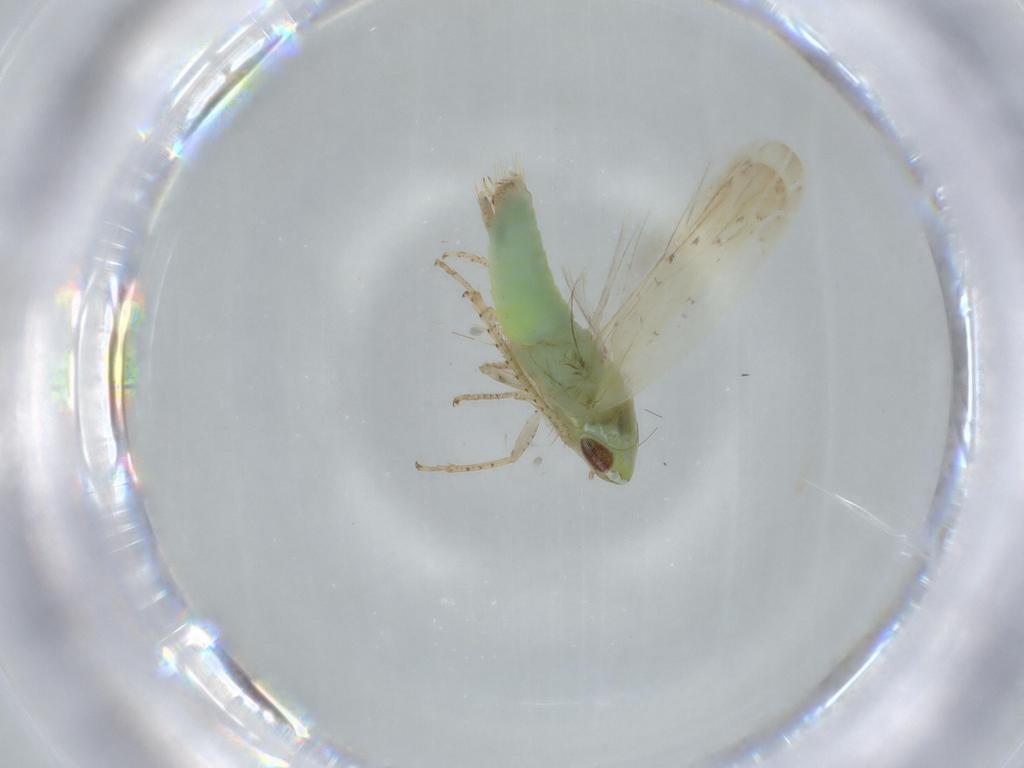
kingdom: Animalia
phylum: Arthropoda
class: Insecta
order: Hemiptera
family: Cicadellidae
